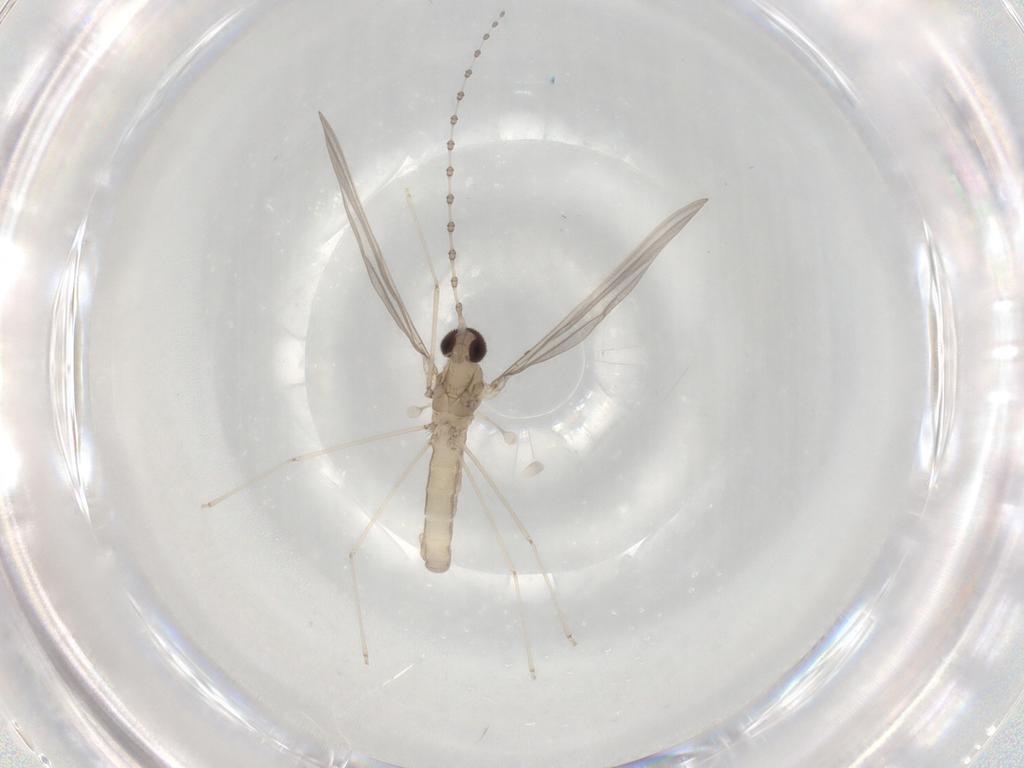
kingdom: Animalia
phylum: Arthropoda
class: Insecta
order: Diptera
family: Cecidomyiidae
